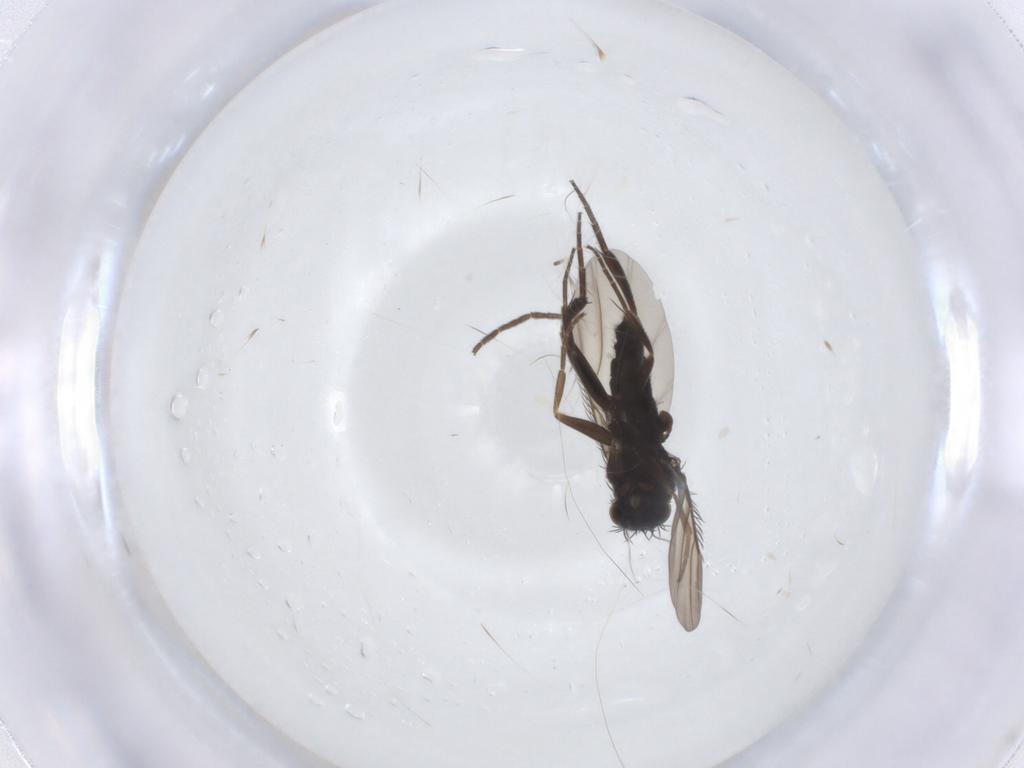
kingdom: Animalia
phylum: Arthropoda
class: Insecta
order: Diptera
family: Phoridae
